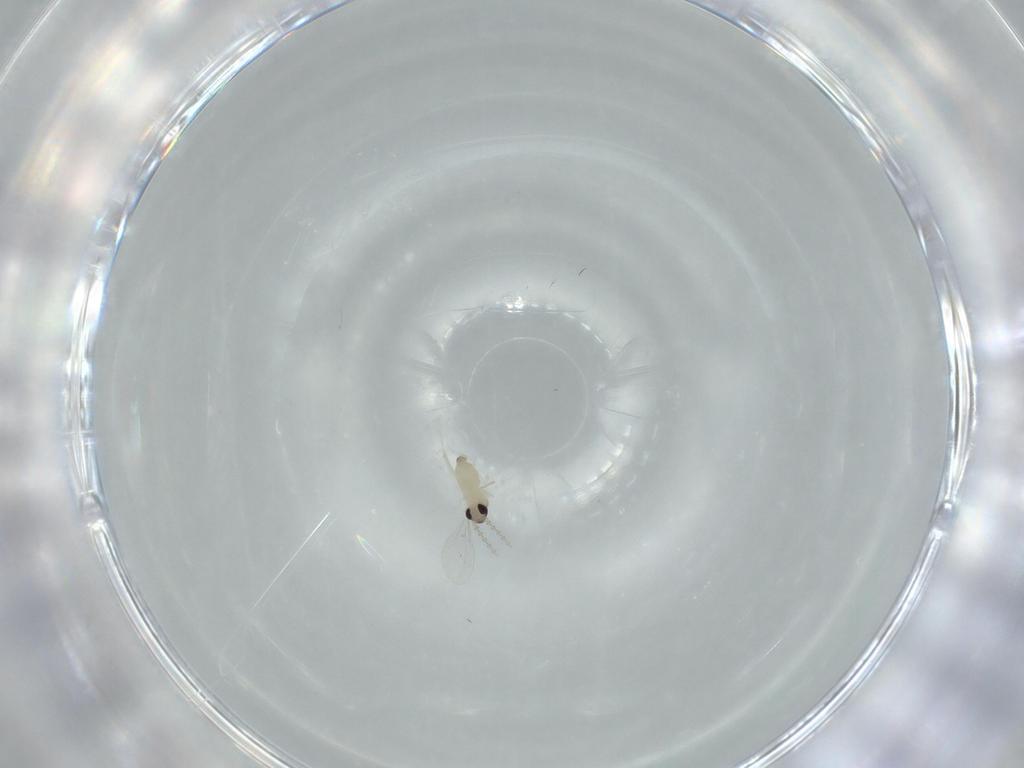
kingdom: Animalia
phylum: Arthropoda
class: Insecta
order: Diptera
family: Cecidomyiidae
